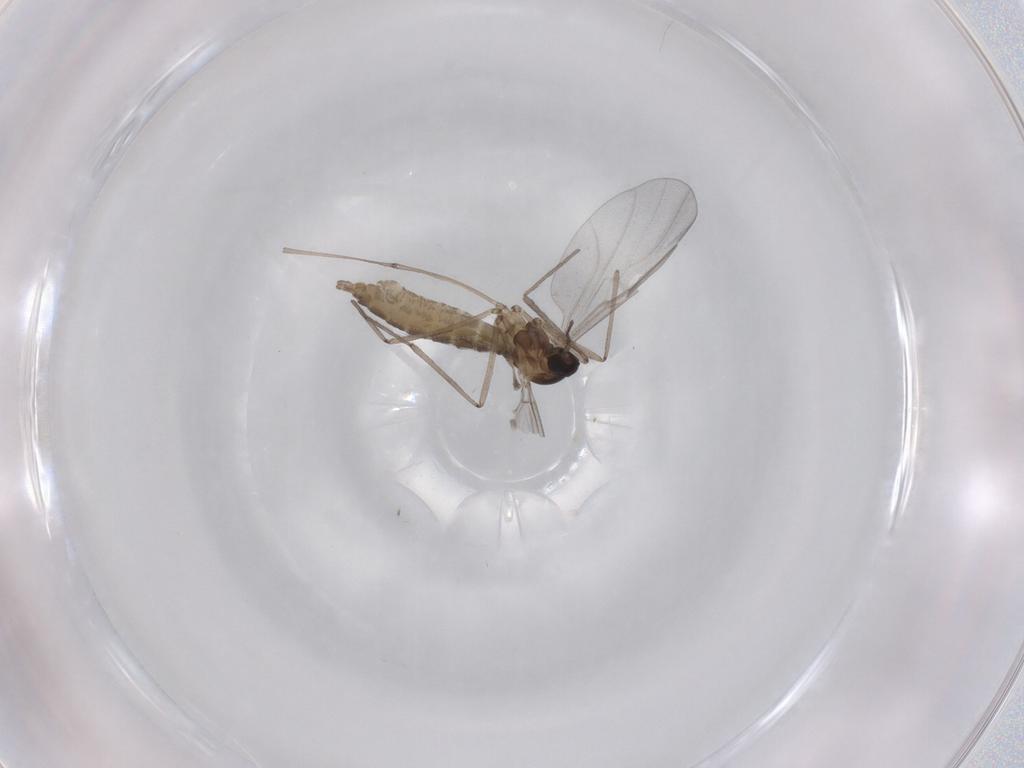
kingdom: Animalia
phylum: Arthropoda
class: Insecta
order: Diptera
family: Cecidomyiidae
